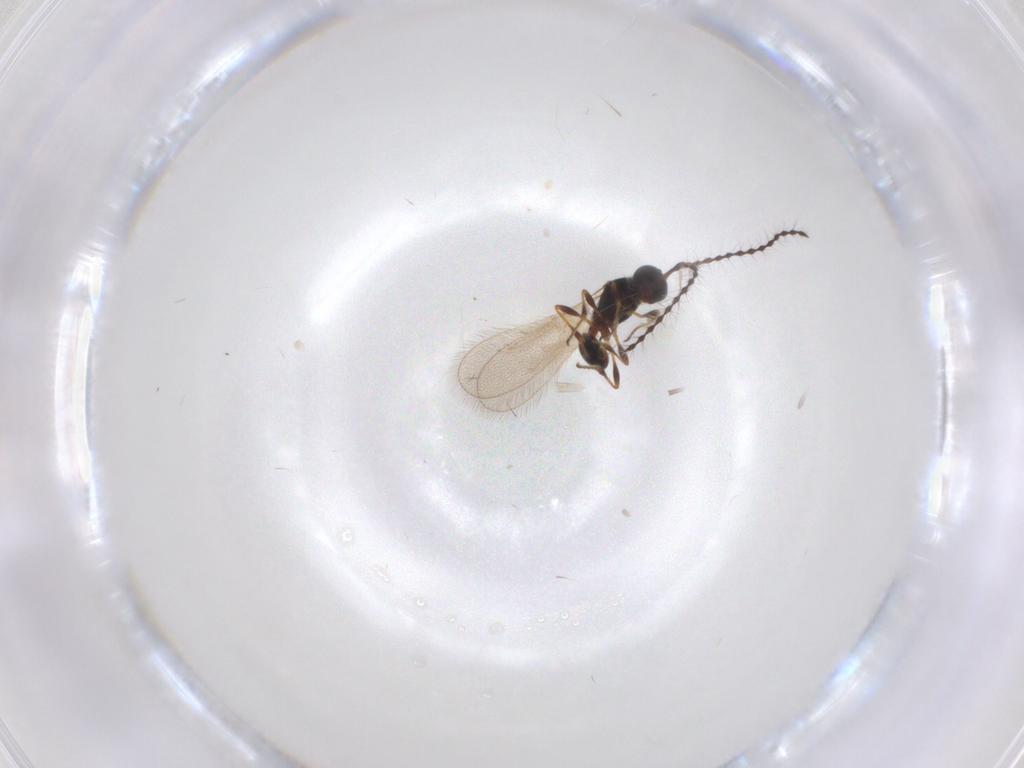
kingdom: Animalia
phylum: Arthropoda
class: Insecta
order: Hymenoptera
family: Diapriidae
